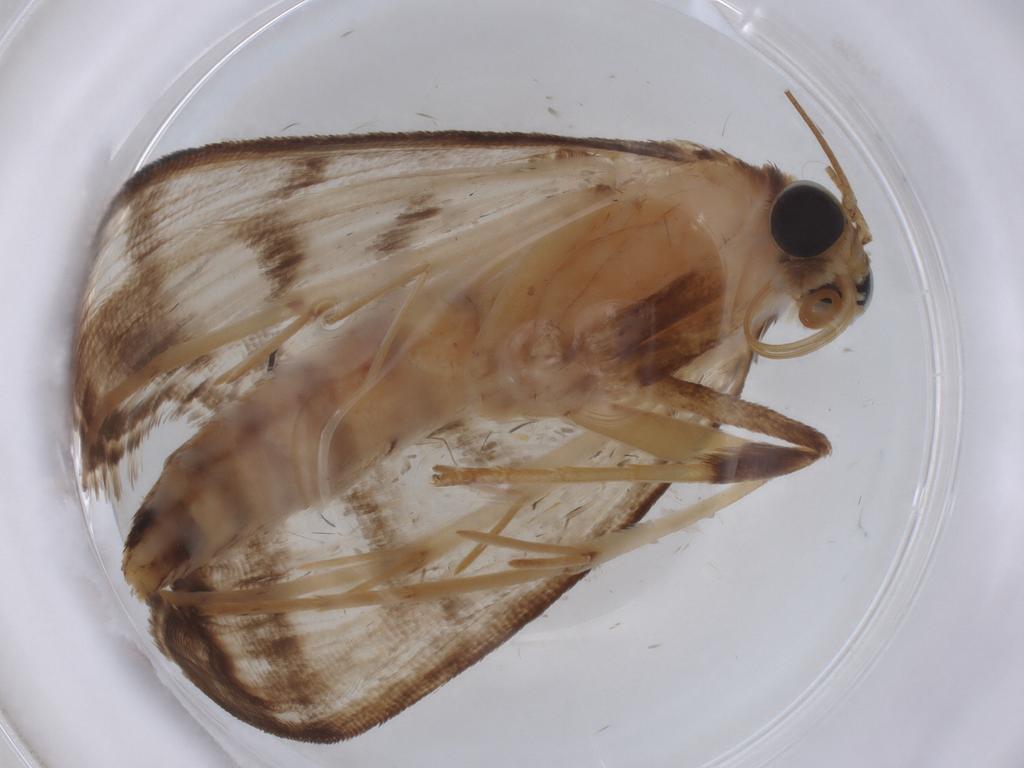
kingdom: Animalia
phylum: Arthropoda
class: Insecta
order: Lepidoptera
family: Crambidae
